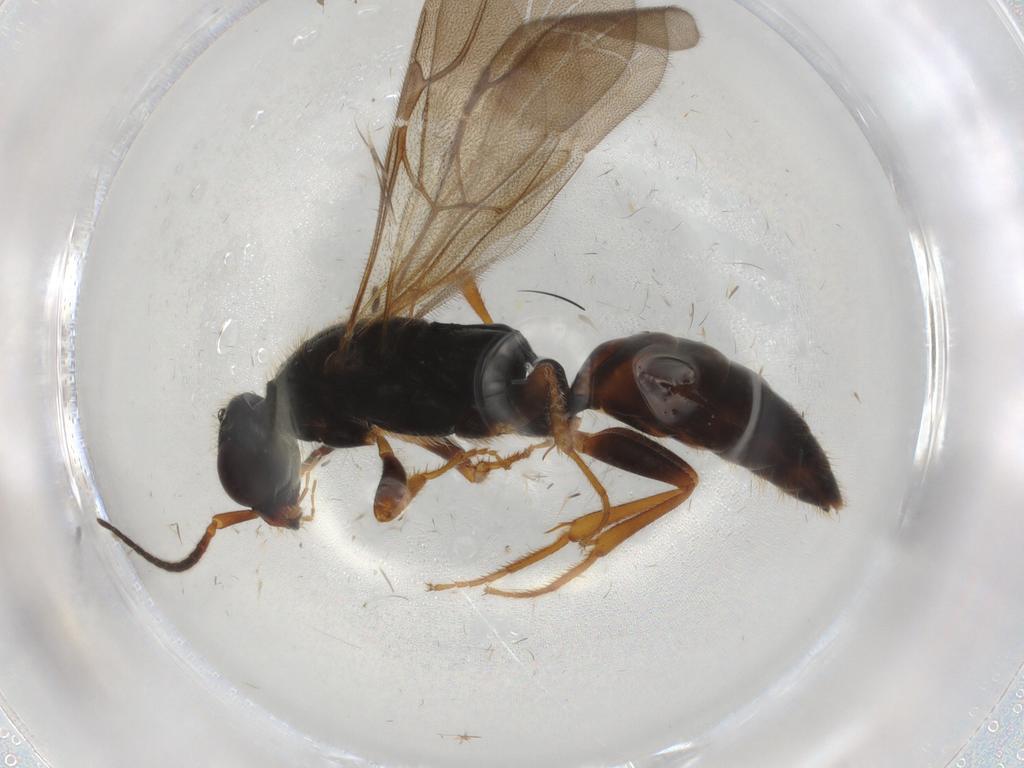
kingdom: Animalia
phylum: Arthropoda
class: Insecta
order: Hymenoptera
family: Bethylidae
